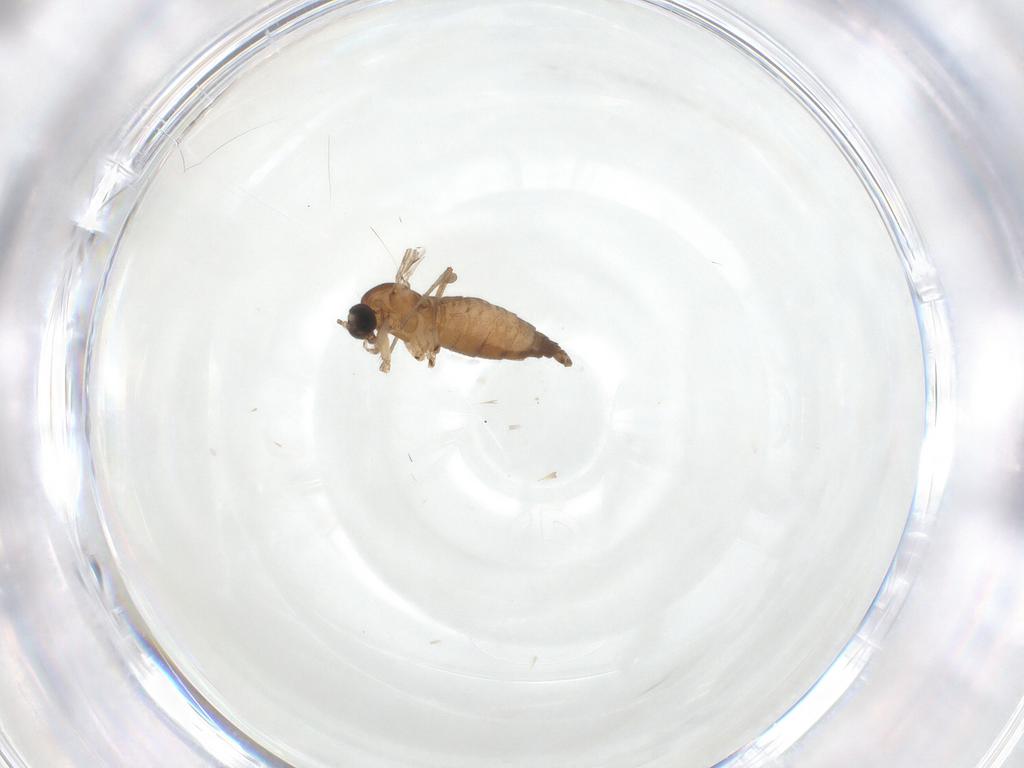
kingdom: Animalia
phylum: Arthropoda
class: Insecta
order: Diptera
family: Sciaridae
